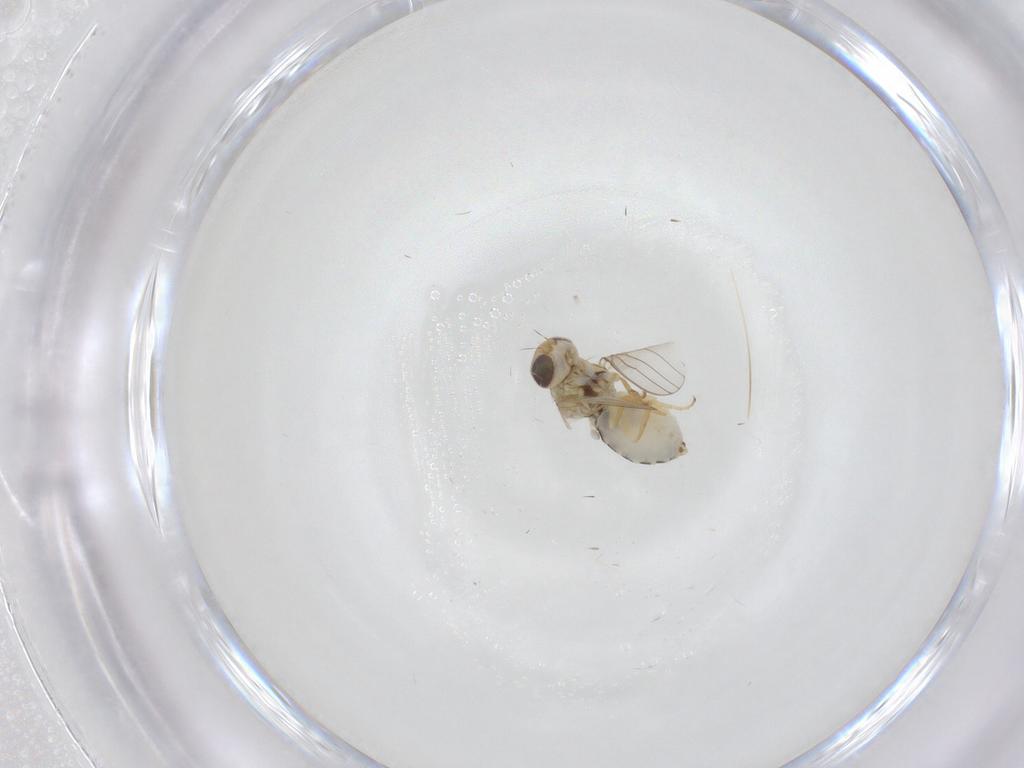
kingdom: Animalia
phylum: Arthropoda
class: Insecta
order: Diptera
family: Chyromyidae
